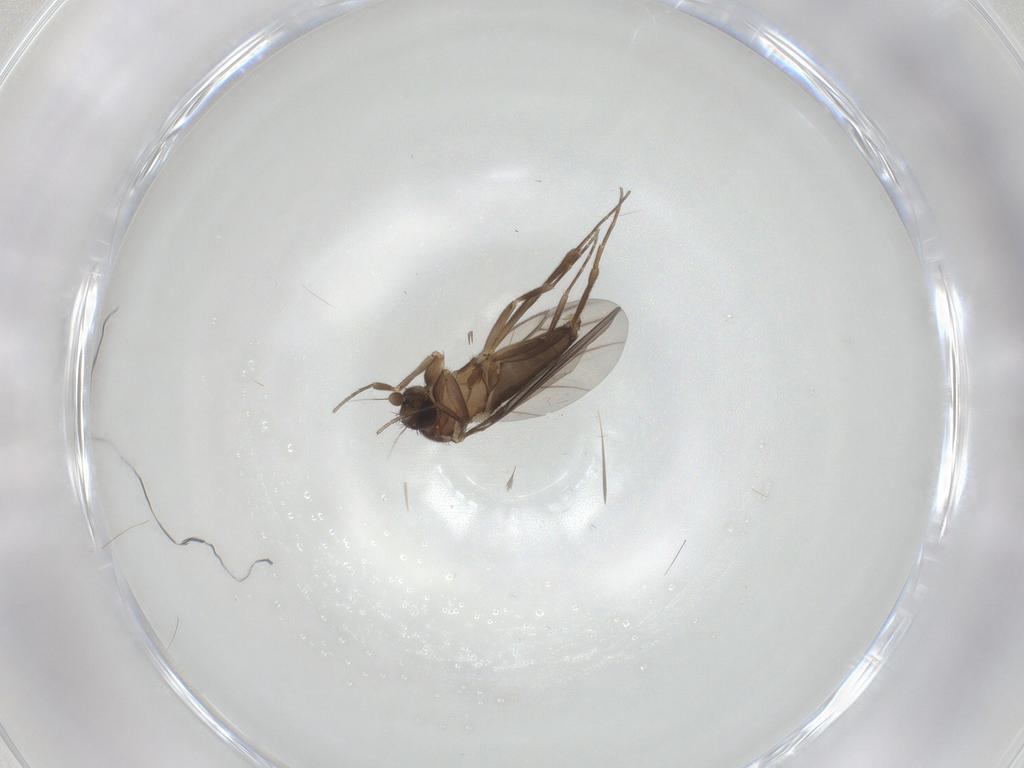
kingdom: Animalia
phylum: Arthropoda
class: Insecta
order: Diptera
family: Phoridae
